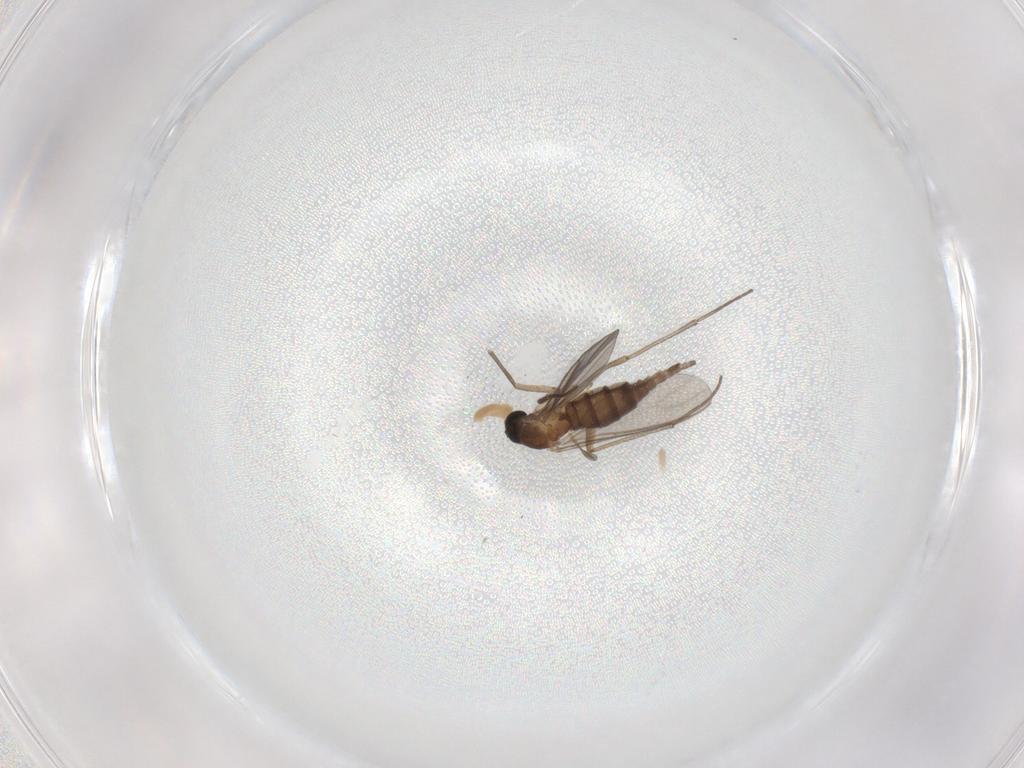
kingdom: Animalia
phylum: Arthropoda
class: Insecta
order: Diptera
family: Sciaridae
